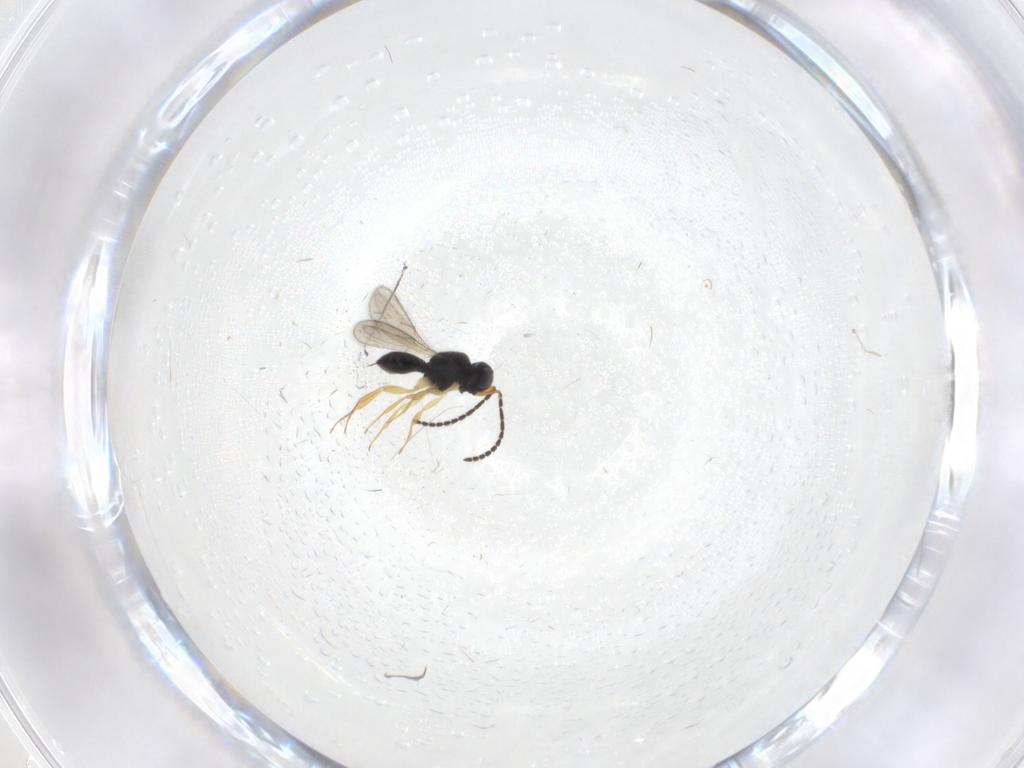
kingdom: Animalia
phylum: Arthropoda
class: Insecta
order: Hymenoptera
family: Scelionidae
